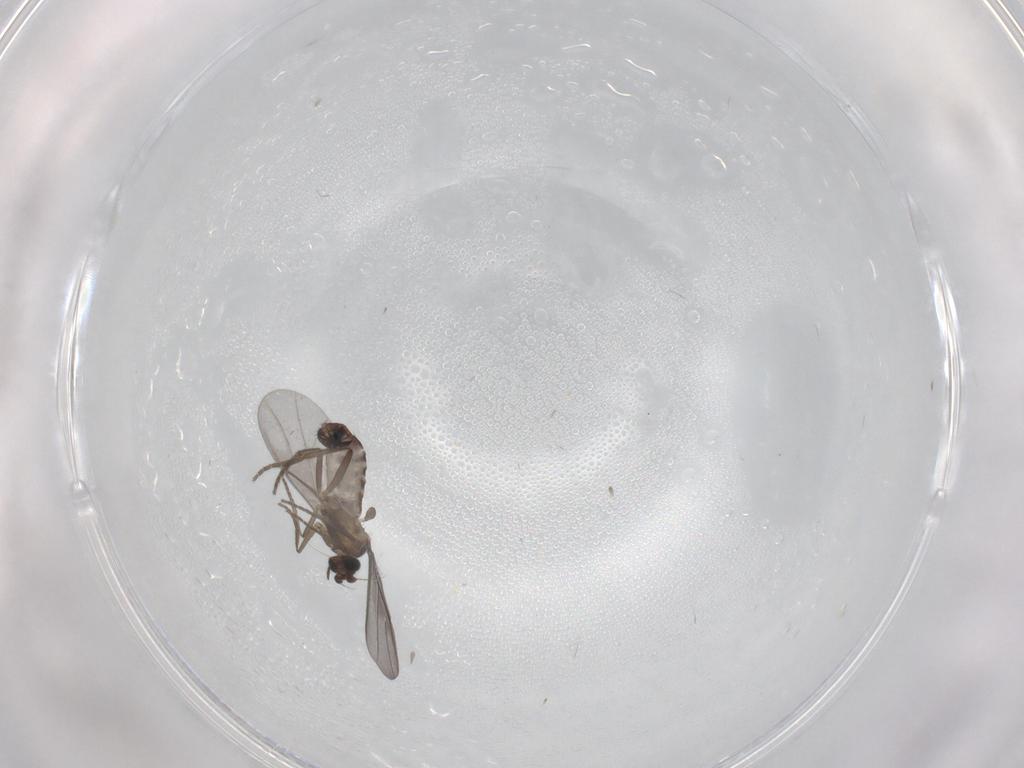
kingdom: Animalia
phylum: Arthropoda
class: Insecta
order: Diptera
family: Phoridae
